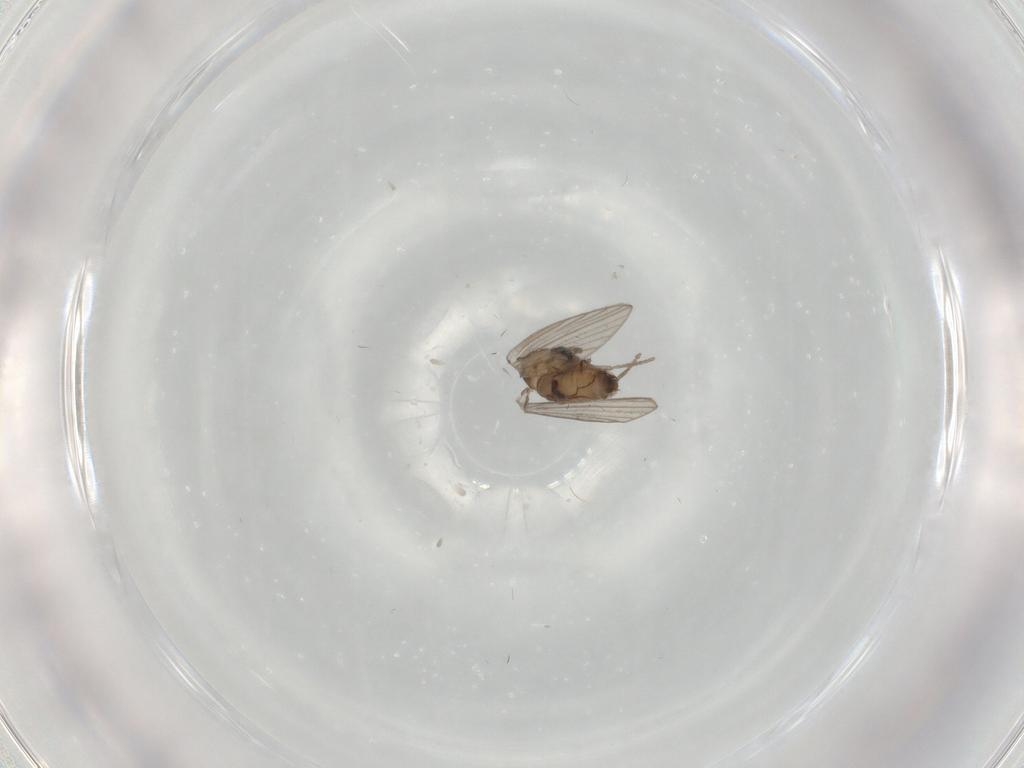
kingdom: Animalia
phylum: Arthropoda
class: Insecta
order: Diptera
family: Psychodidae
